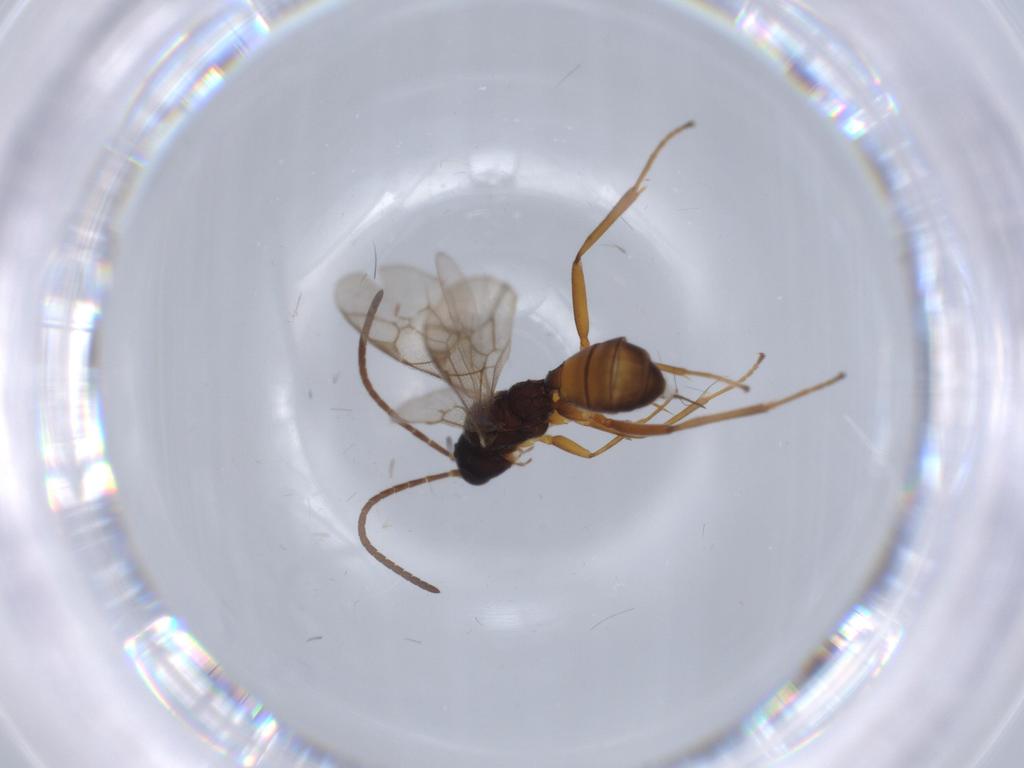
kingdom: Animalia
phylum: Arthropoda
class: Insecta
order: Hymenoptera
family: Ichneumonidae
